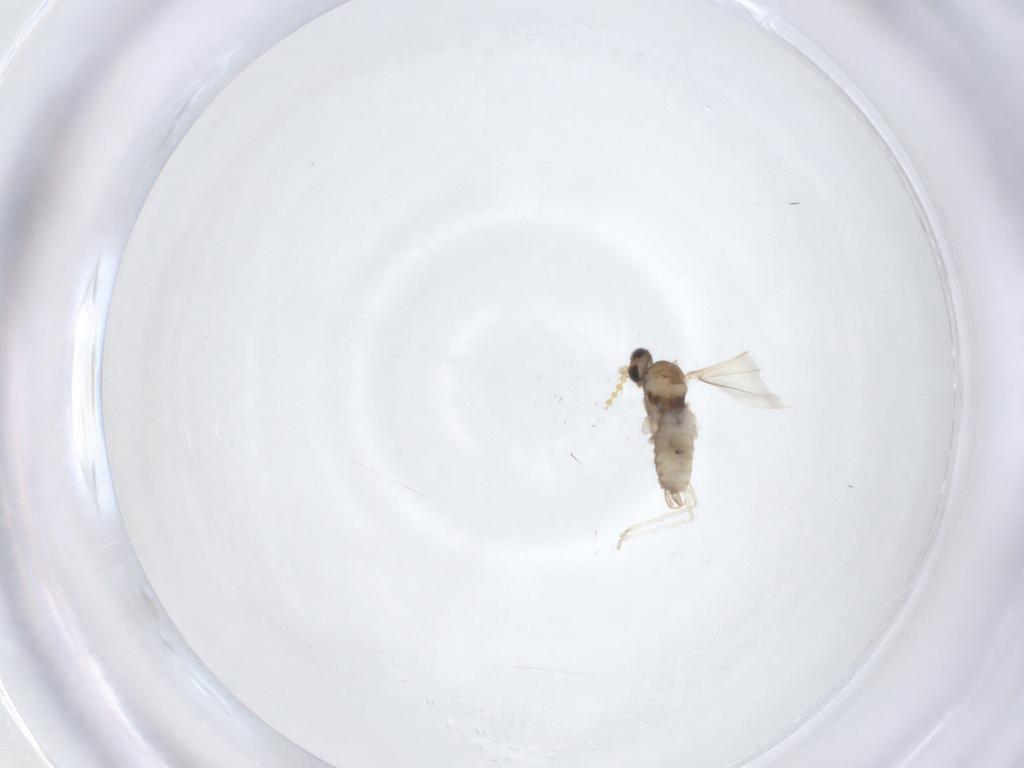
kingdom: Animalia
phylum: Arthropoda
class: Insecta
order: Diptera
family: Cecidomyiidae
